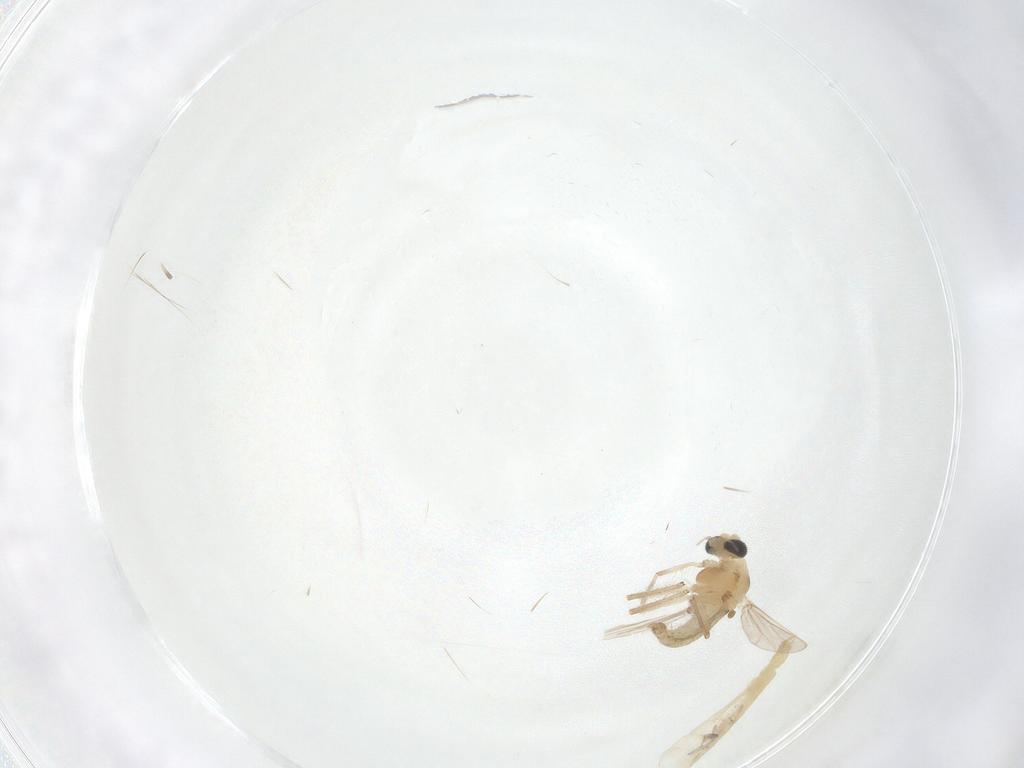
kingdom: Animalia
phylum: Arthropoda
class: Insecta
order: Diptera
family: Chironomidae
